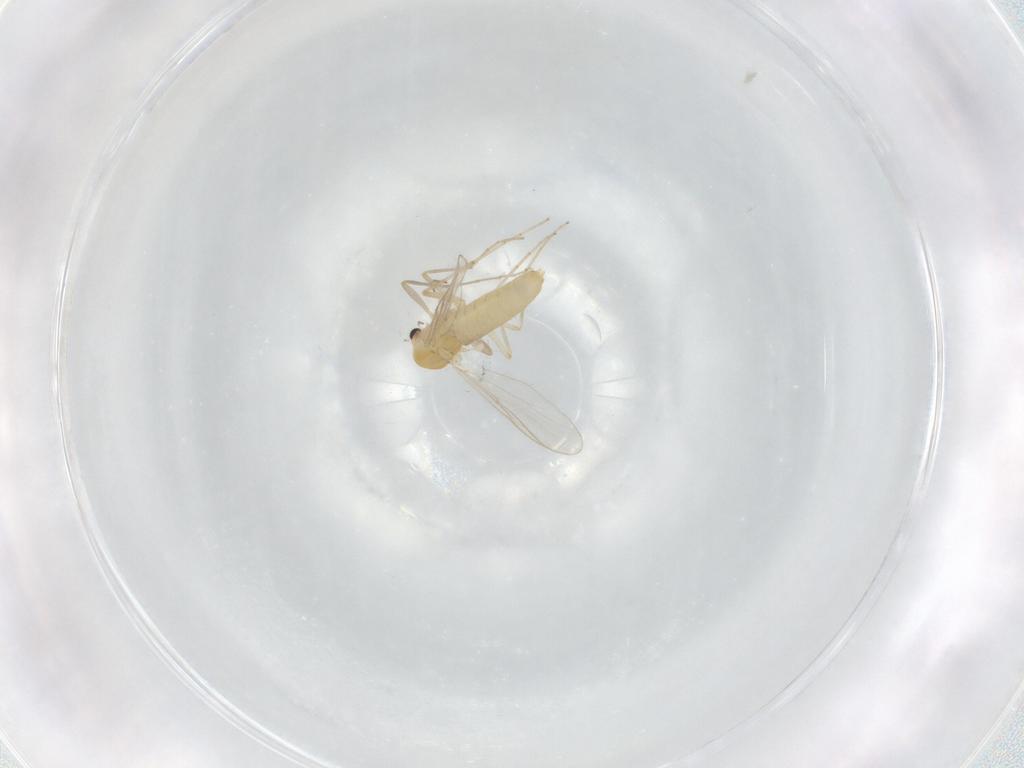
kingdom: Animalia
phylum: Arthropoda
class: Insecta
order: Diptera
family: Chironomidae
